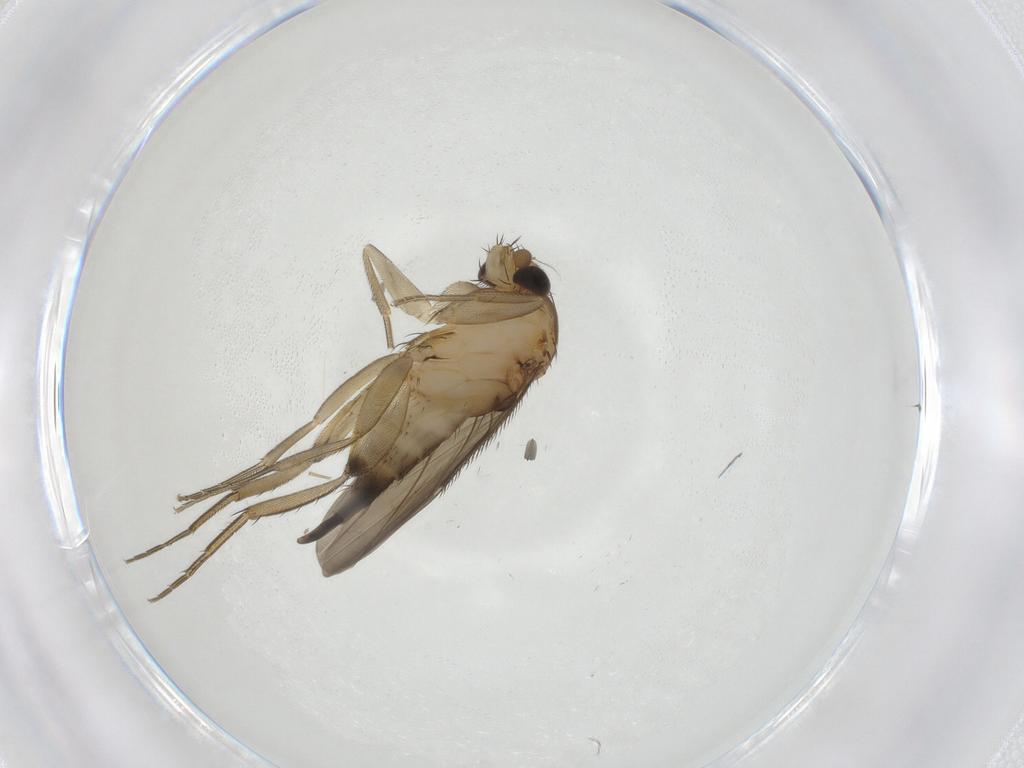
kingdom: Animalia
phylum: Arthropoda
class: Insecta
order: Diptera
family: Phoridae
